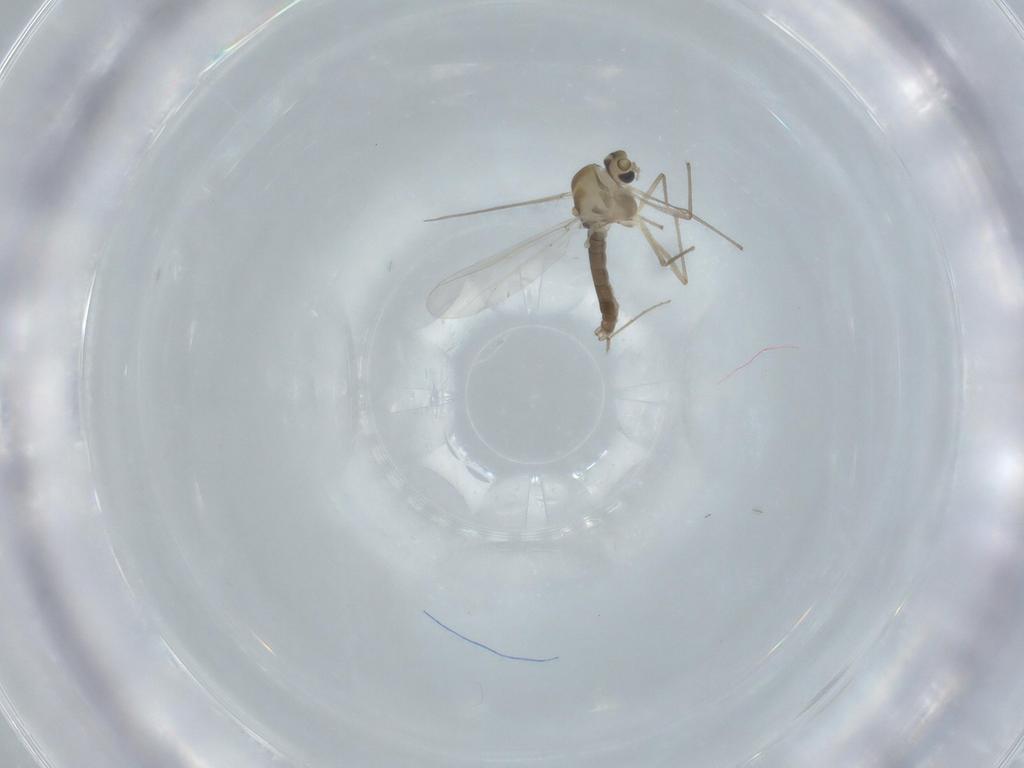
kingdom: Animalia
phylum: Arthropoda
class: Insecta
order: Diptera
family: Chironomidae
